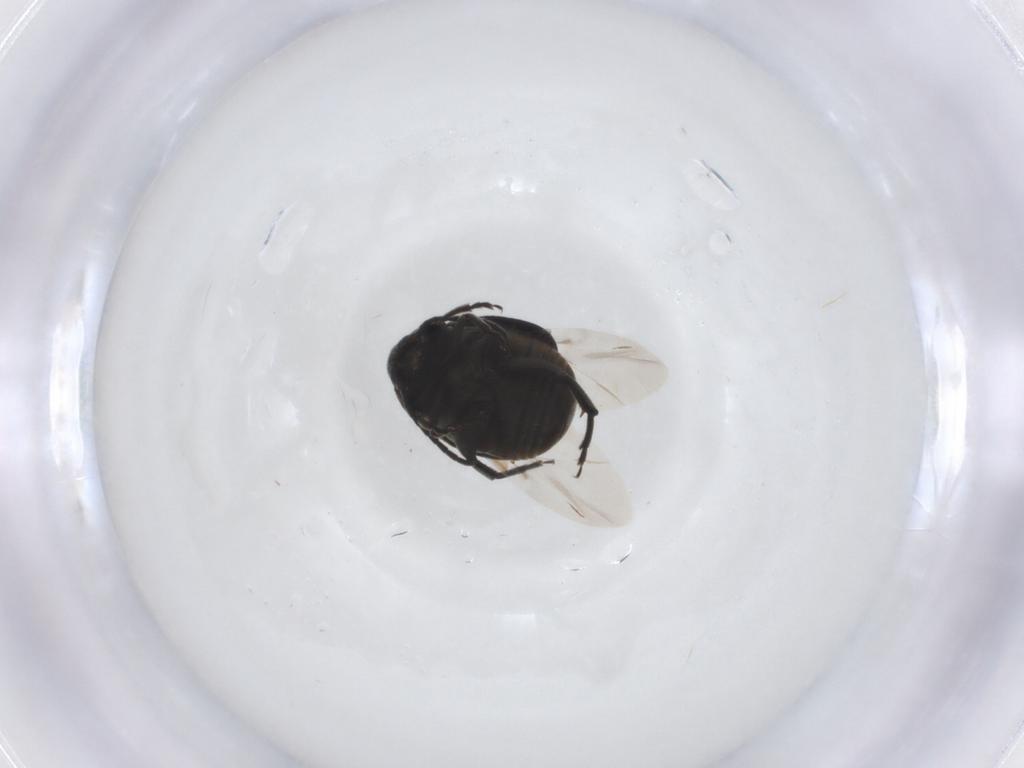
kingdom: Animalia
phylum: Arthropoda
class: Insecta
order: Coleoptera
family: Chrysomelidae
